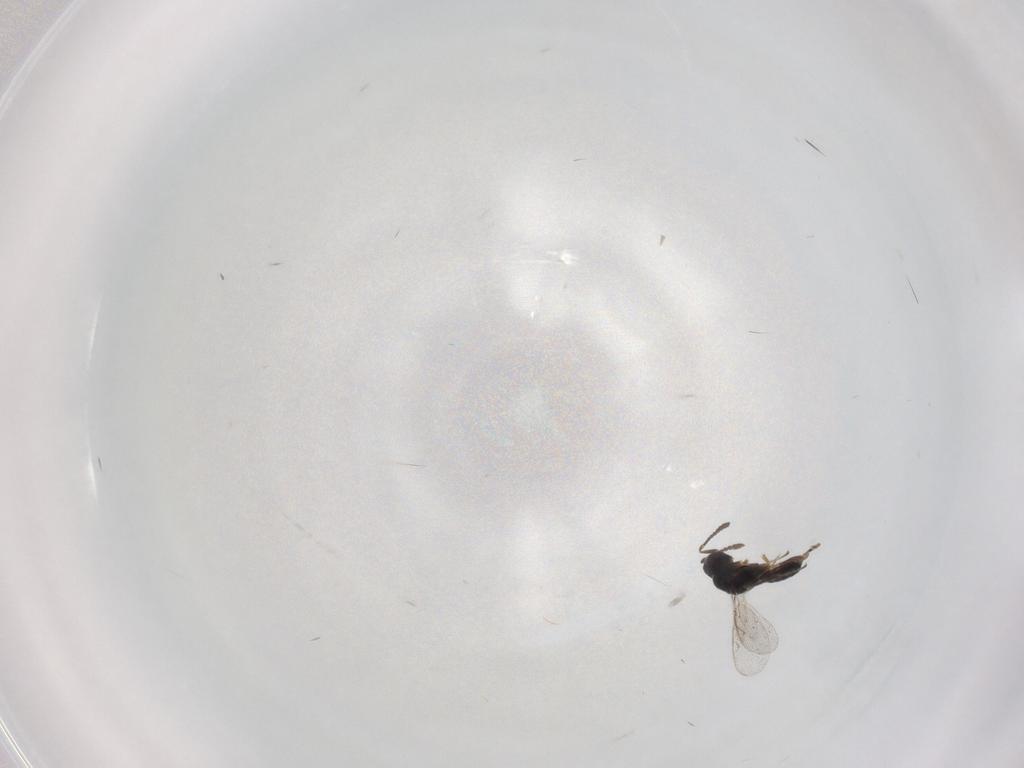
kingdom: Animalia
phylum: Arthropoda
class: Insecta
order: Hymenoptera
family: Pteromalidae
